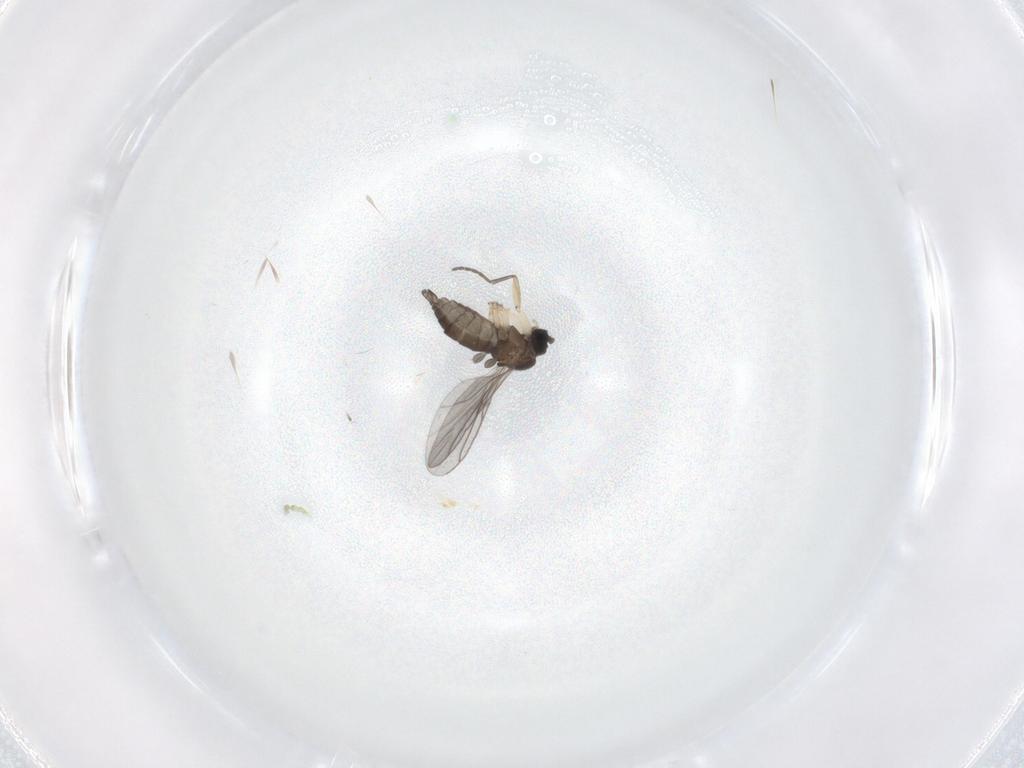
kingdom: Animalia
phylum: Arthropoda
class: Insecta
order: Diptera
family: Sciaridae
